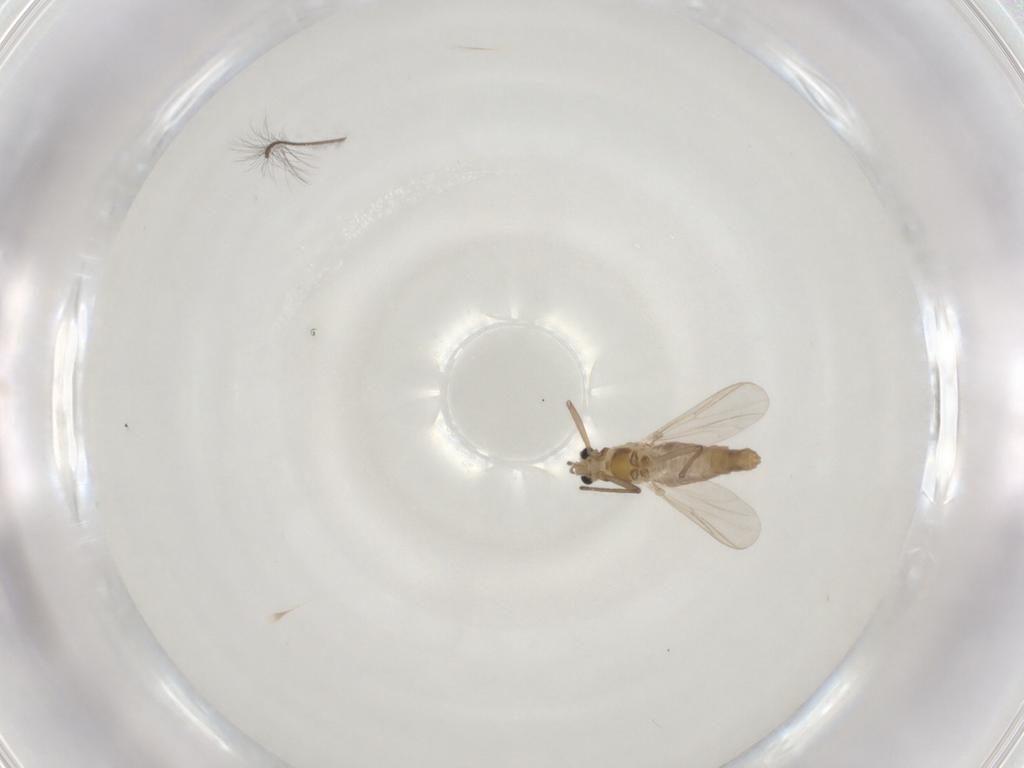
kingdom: Animalia
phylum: Arthropoda
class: Insecta
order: Diptera
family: Chironomidae
